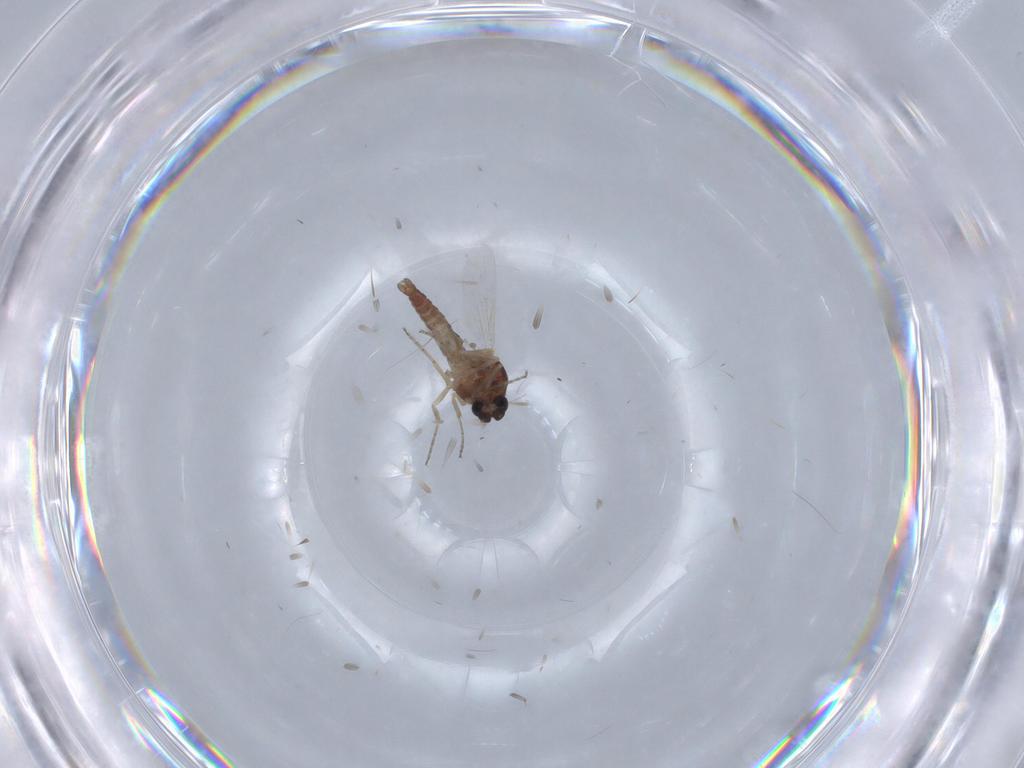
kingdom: Animalia
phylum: Arthropoda
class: Insecta
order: Diptera
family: Ceratopogonidae
